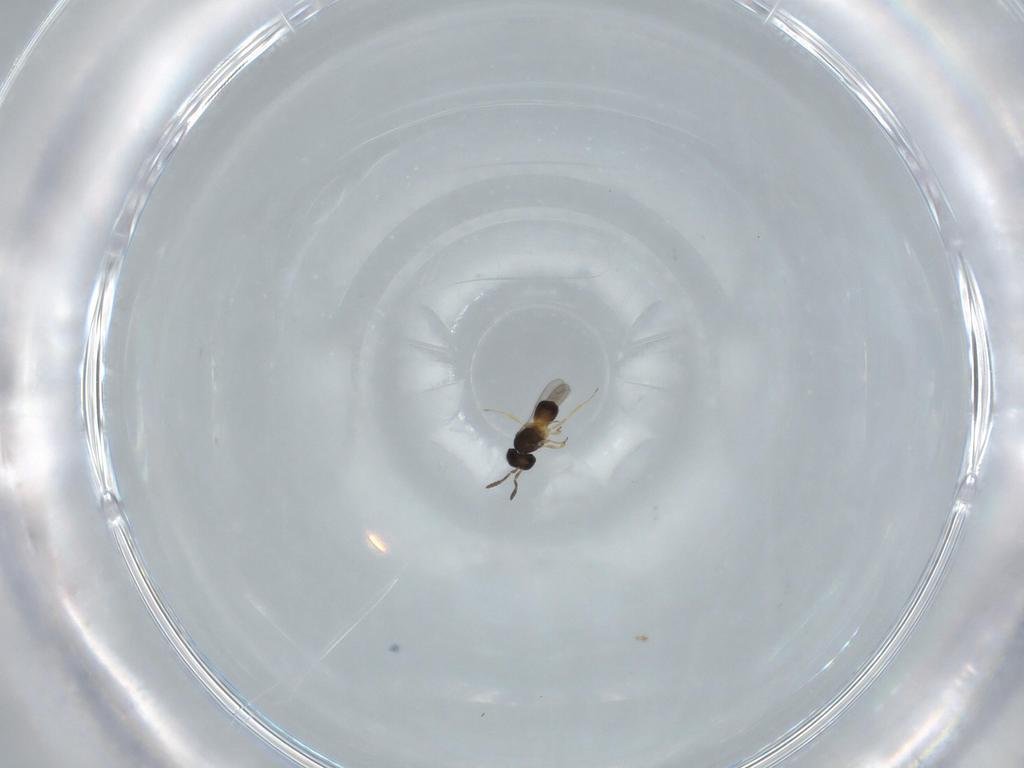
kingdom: Animalia
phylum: Arthropoda
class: Insecta
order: Hymenoptera
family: Scelionidae
